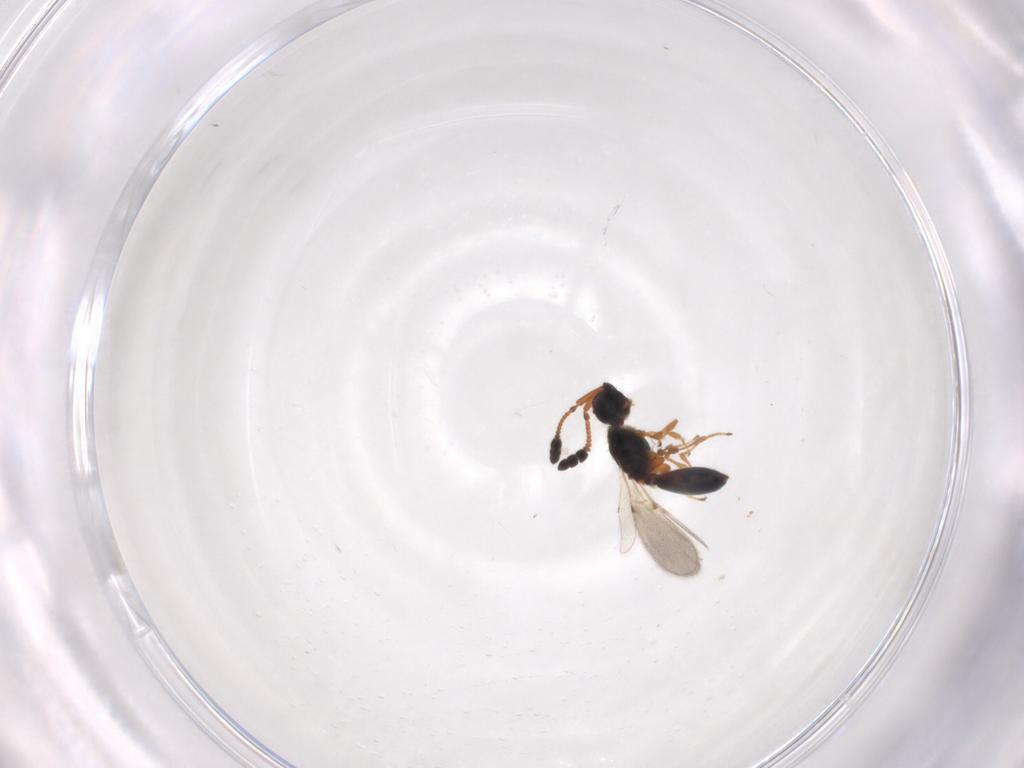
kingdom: Animalia
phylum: Arthropoda
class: Insecta
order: Hymenoptera
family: Diapriidae
